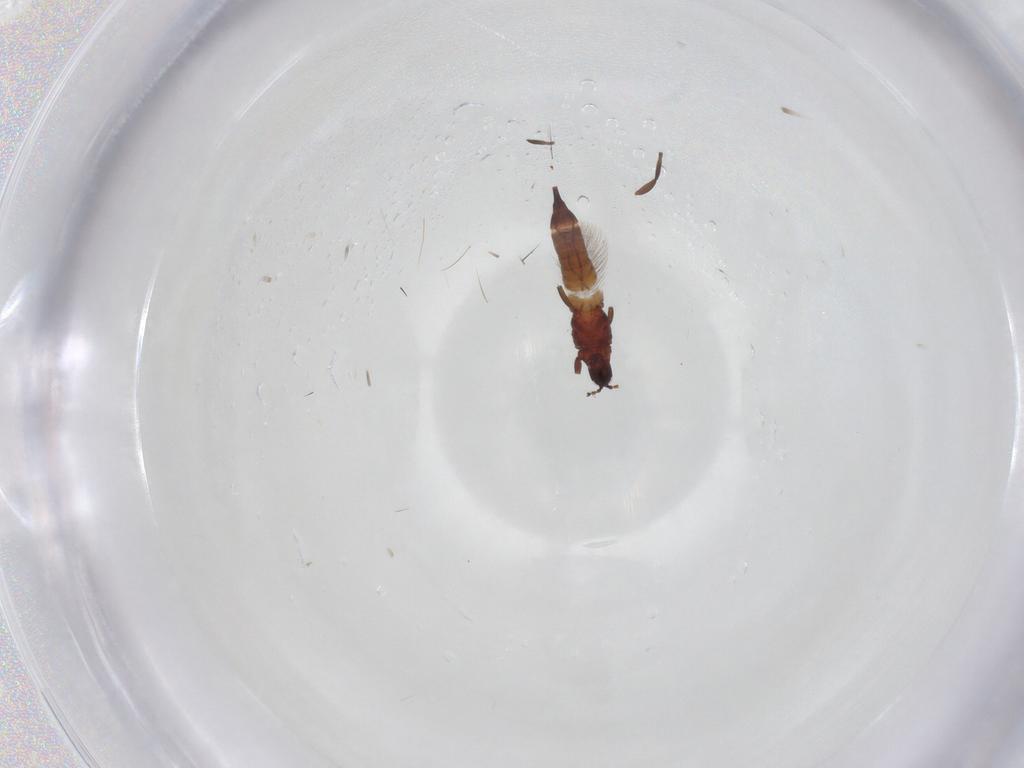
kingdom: Animalia
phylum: Arthropoda
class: Insecta
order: Thysanoptera
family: Phlaeothripidae
